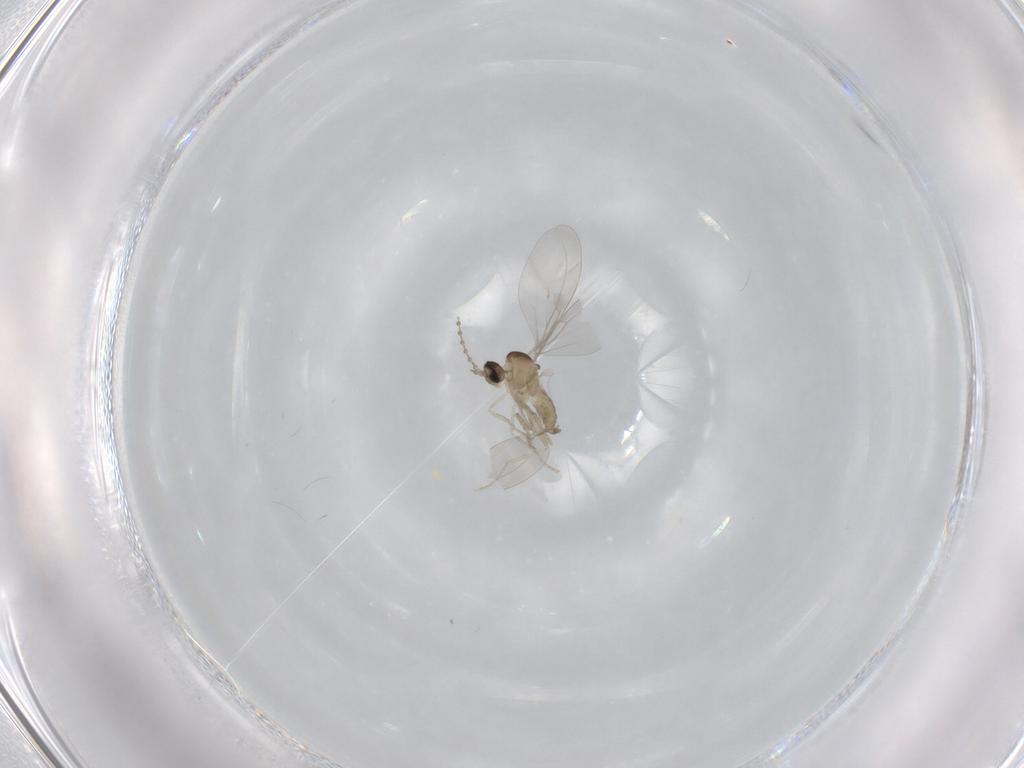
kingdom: Animalia
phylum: Arthropoda
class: Insecta
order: Diptera
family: Cecidomyiidae
